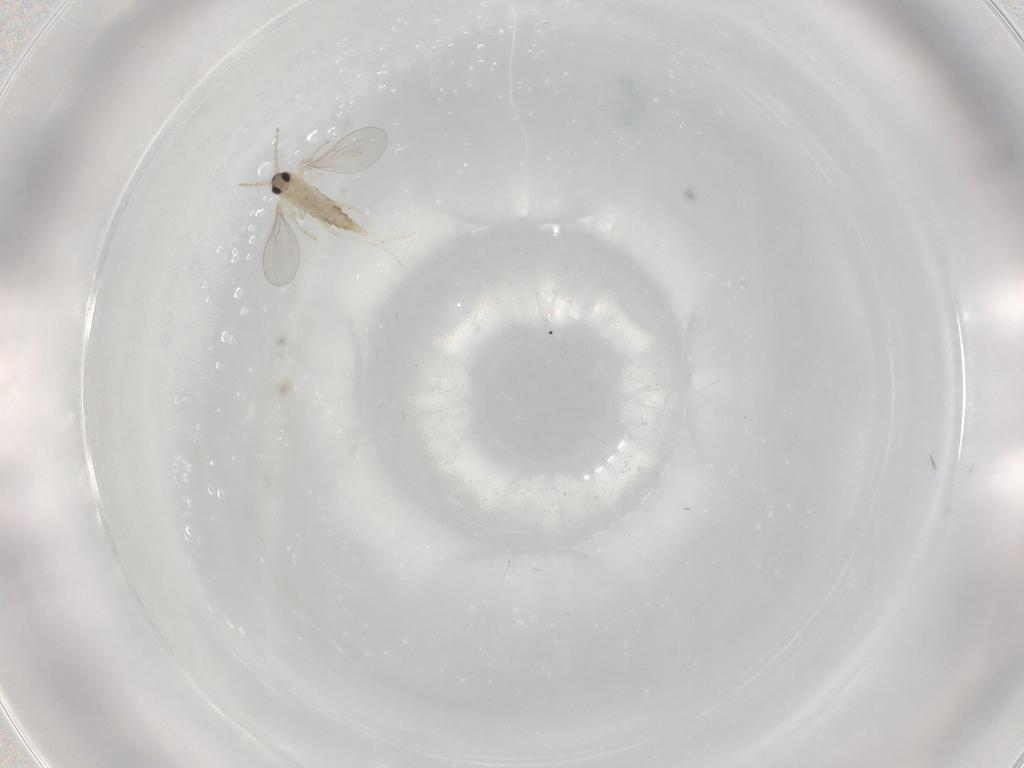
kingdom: Animalia
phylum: Arthropoda
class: Insecta
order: Diptera
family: Cecidomyiidae
